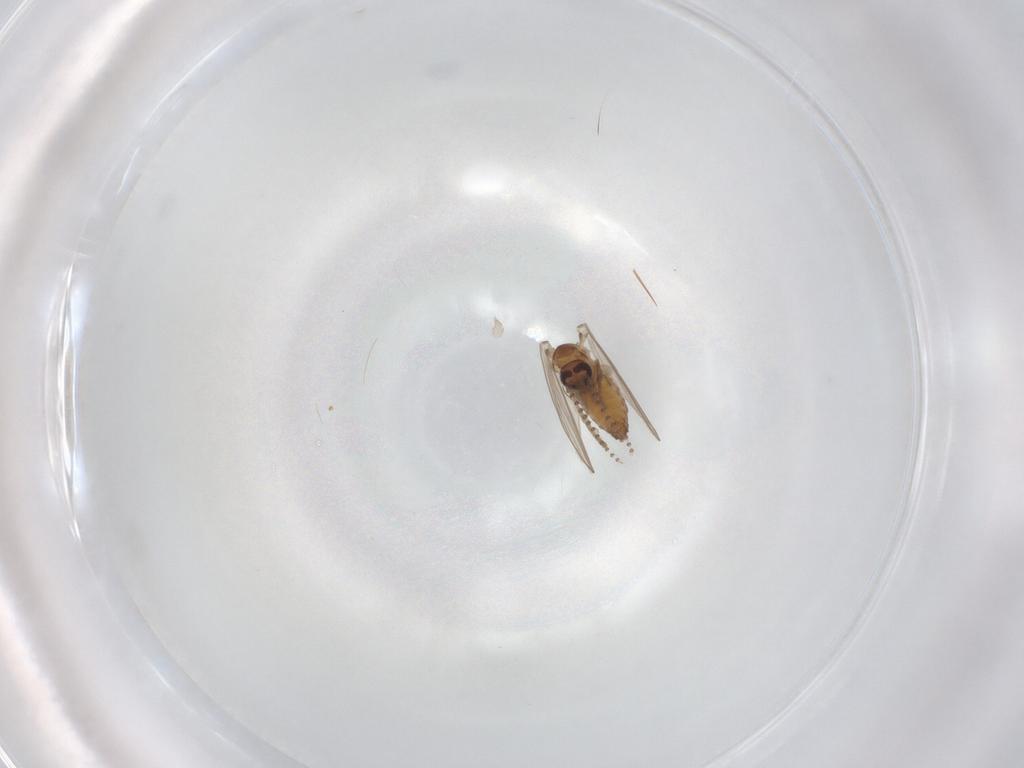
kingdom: Animalia
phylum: Arthropoda
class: Insecta
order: Diptera
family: Psychodidae
